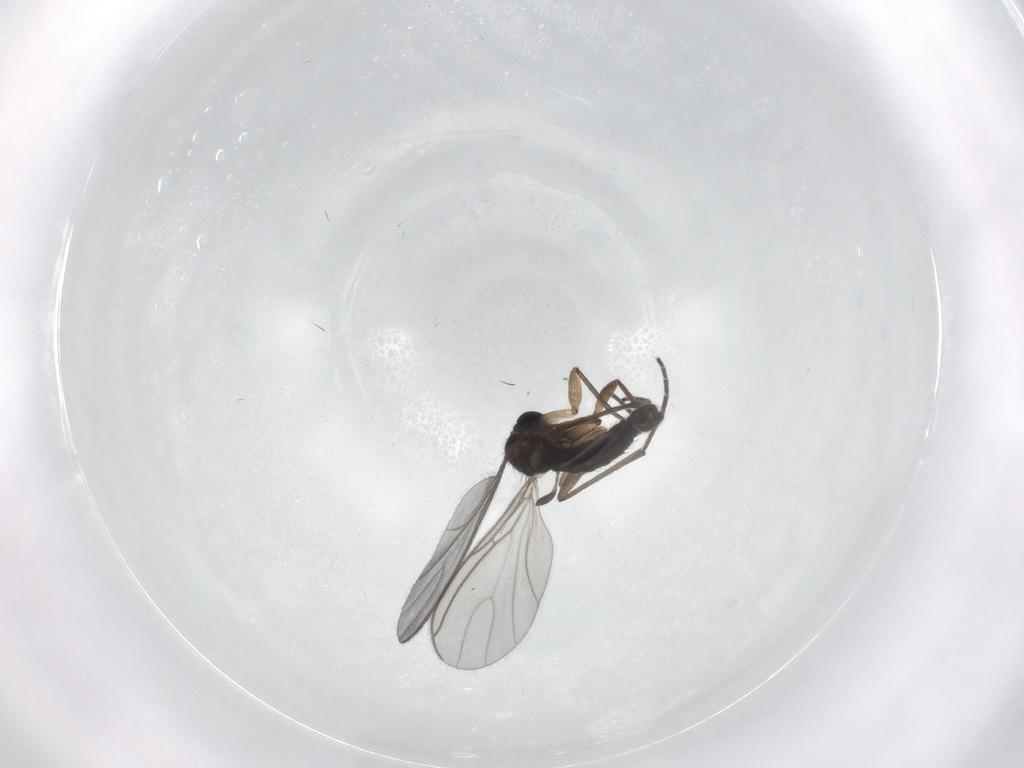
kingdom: Animalia
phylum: Arthropoda
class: Insecta
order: Diptera
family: Sciaridae
